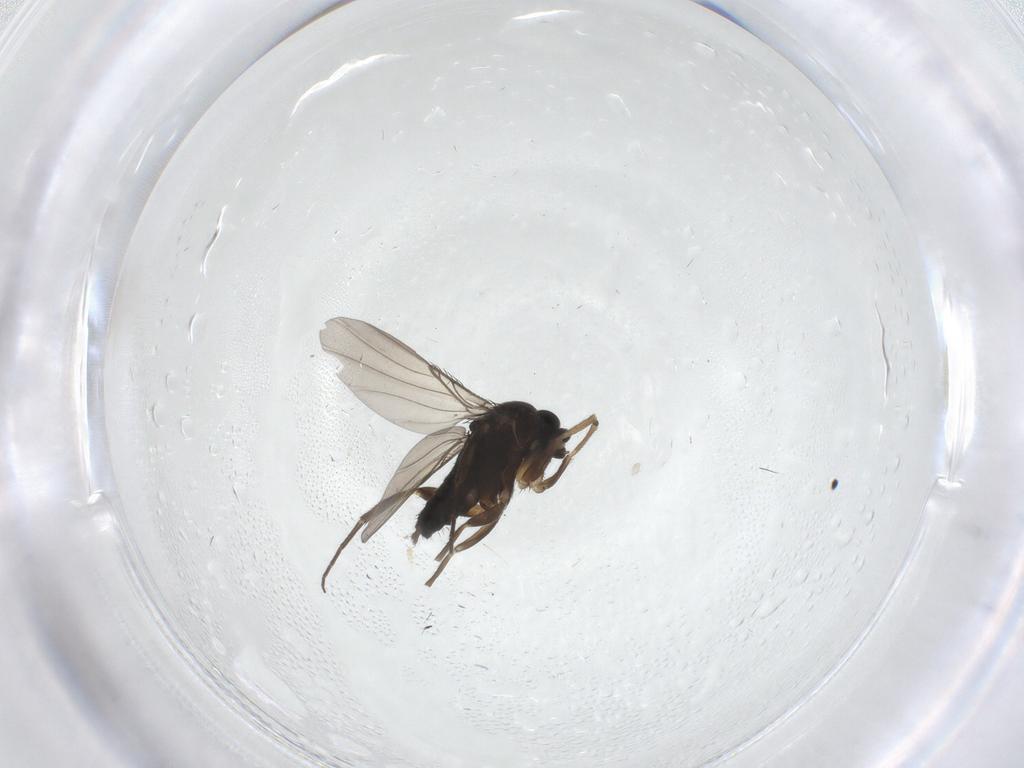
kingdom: Animalia
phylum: Arthropoda
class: Insecta
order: Diptera
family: Phoridae
